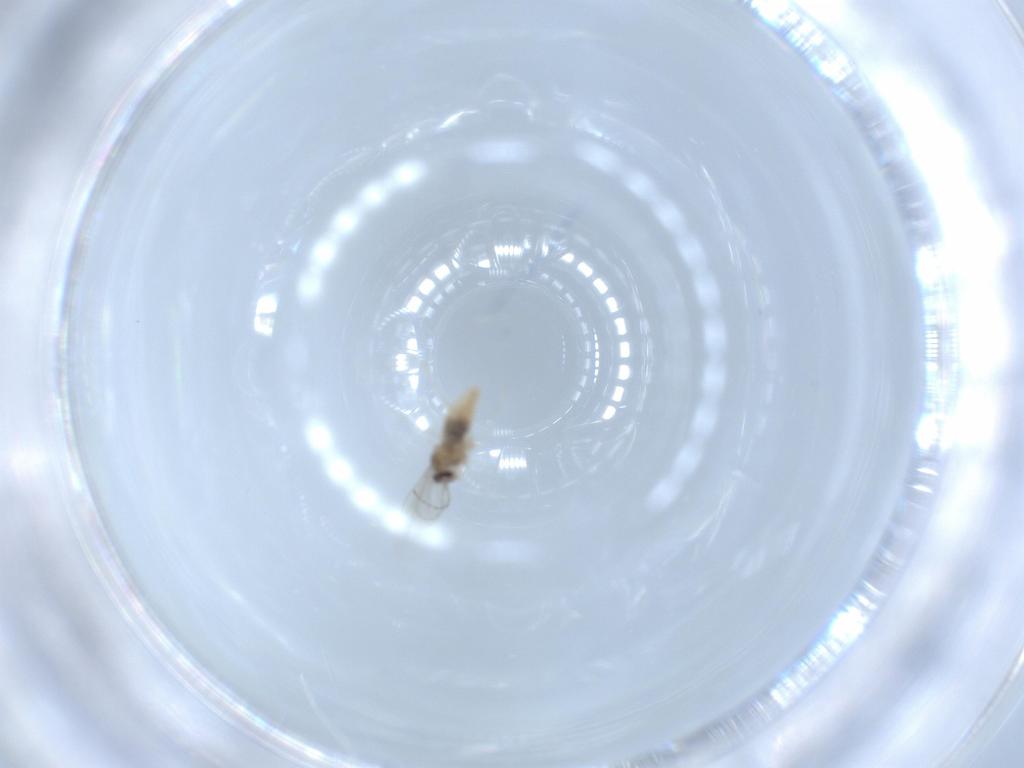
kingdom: Animalia
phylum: Arthropoda
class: Insecta
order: Diptera
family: Cecidomyiidae
